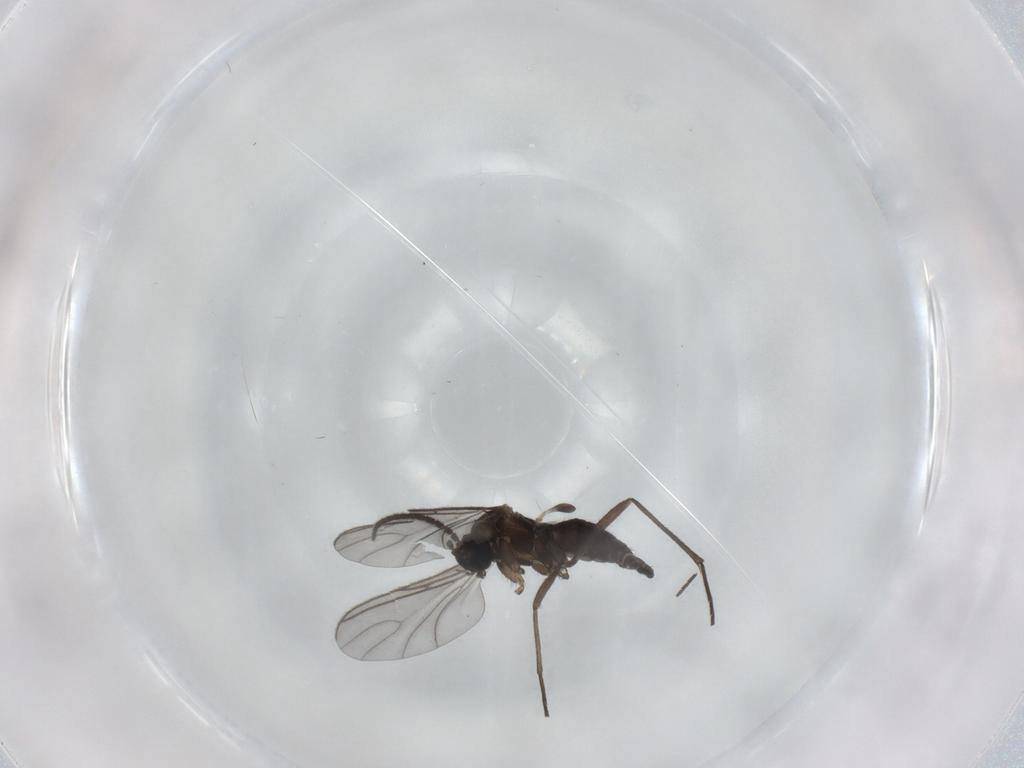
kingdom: Animalia
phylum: Arthropoda
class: Insecta
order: Diptera
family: Sciaridae
